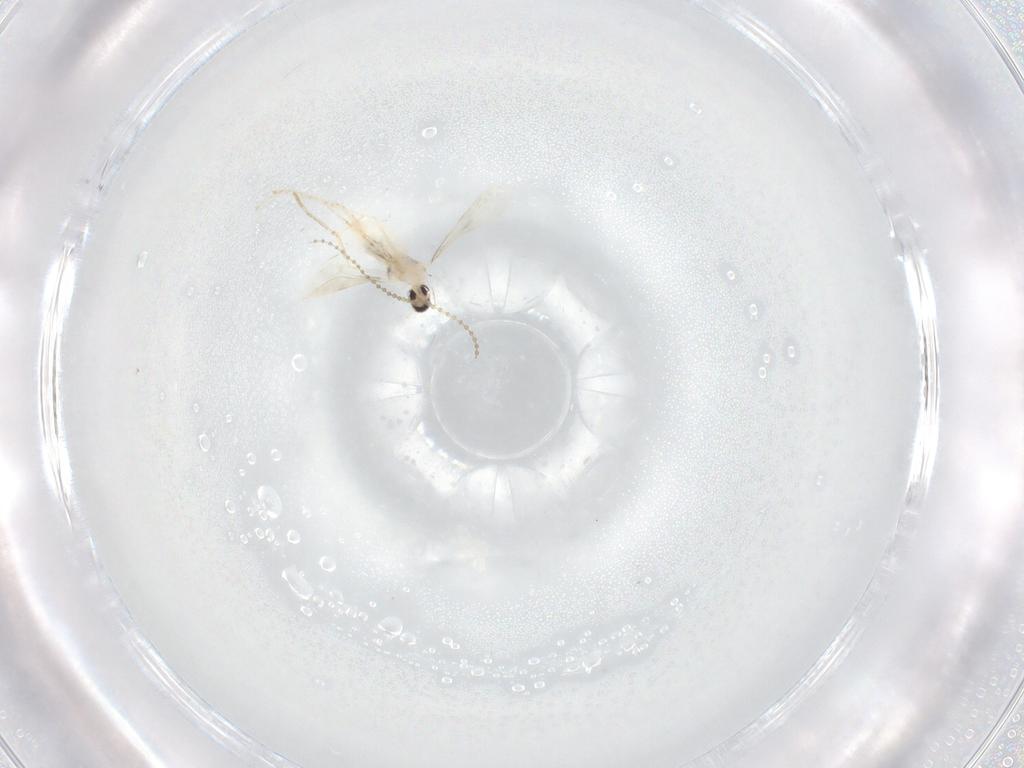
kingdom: Animalia
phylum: Arthropoda
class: Insecta
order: Diptera
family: Cecidomyiidae
